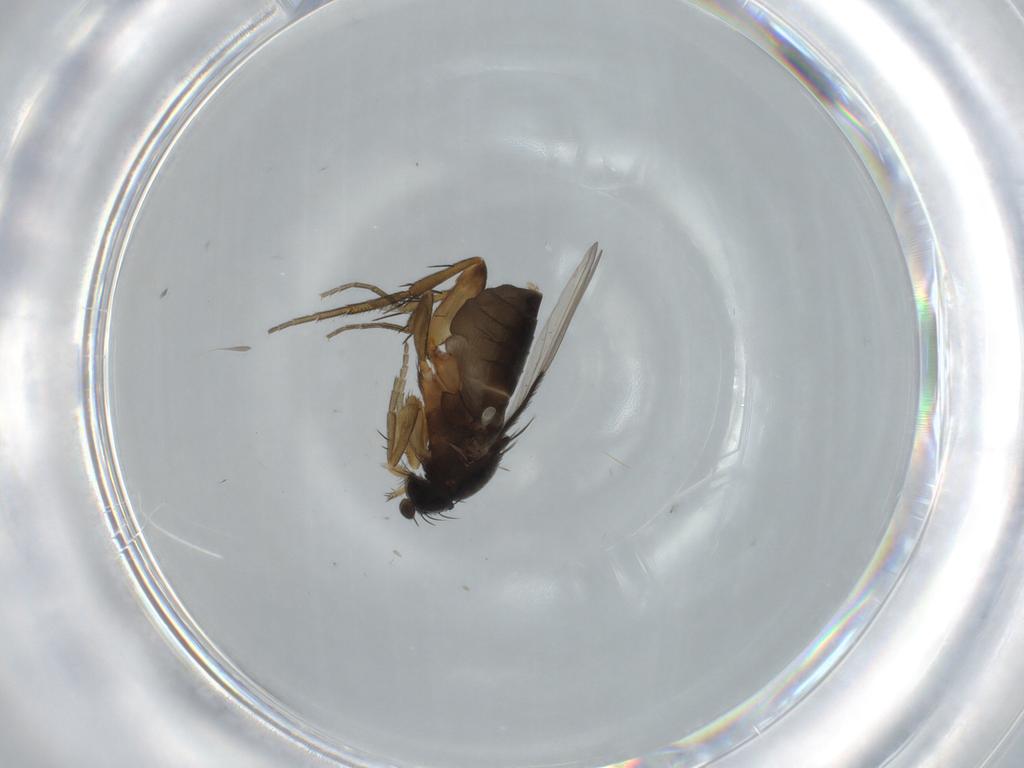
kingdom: Animalia
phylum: Arthropoda
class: Insecta
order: Diptera
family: Phoridae
